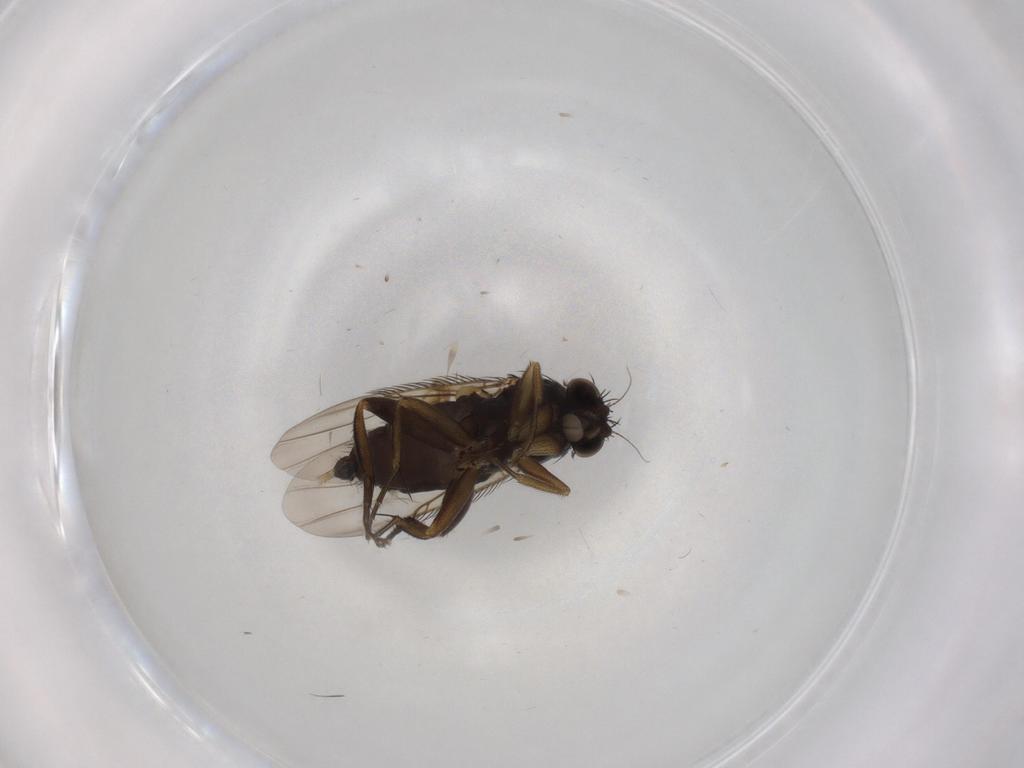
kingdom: Animalia
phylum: Arthropoda
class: Insecta
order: Diptera
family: Phoridae
